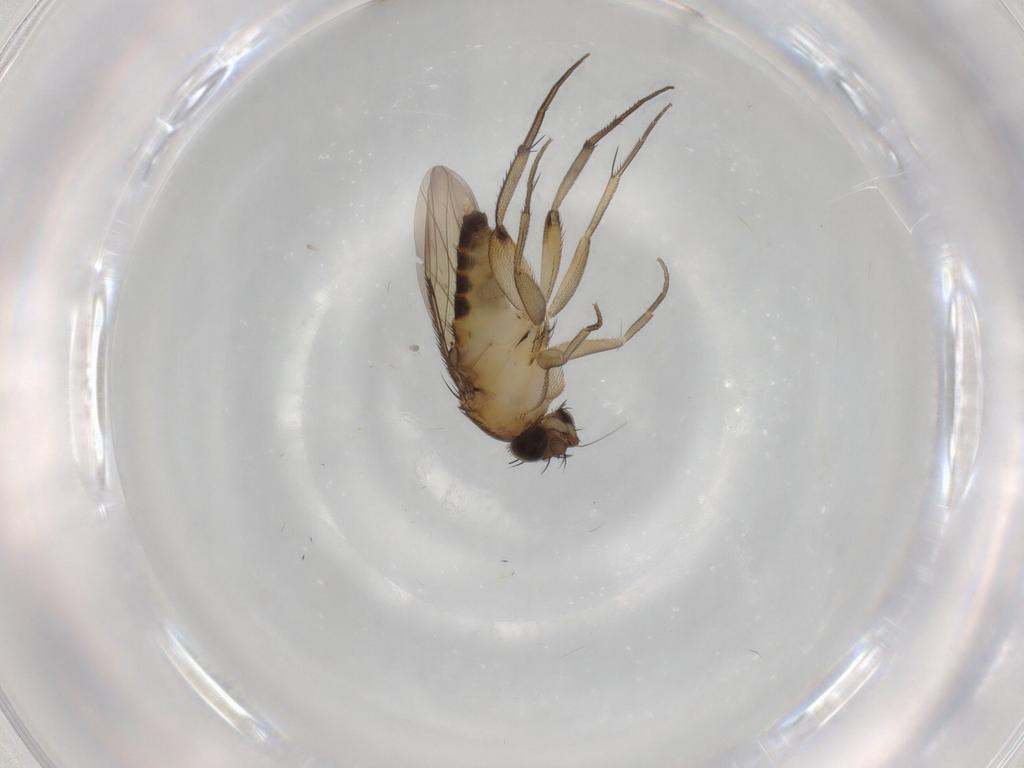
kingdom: Animalia
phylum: Arthropoda
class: Insecta
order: Diptera
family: Phoridae
